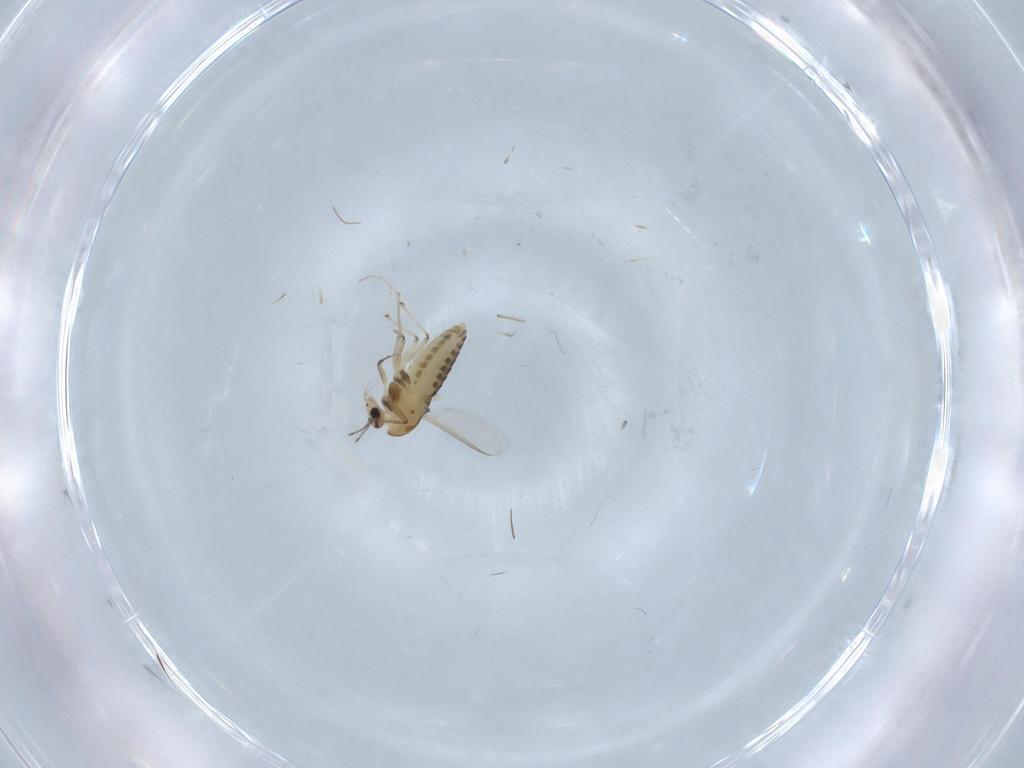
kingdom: Animalia
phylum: Arthropoda
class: Insecta
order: Diptera
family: Chironomidae
